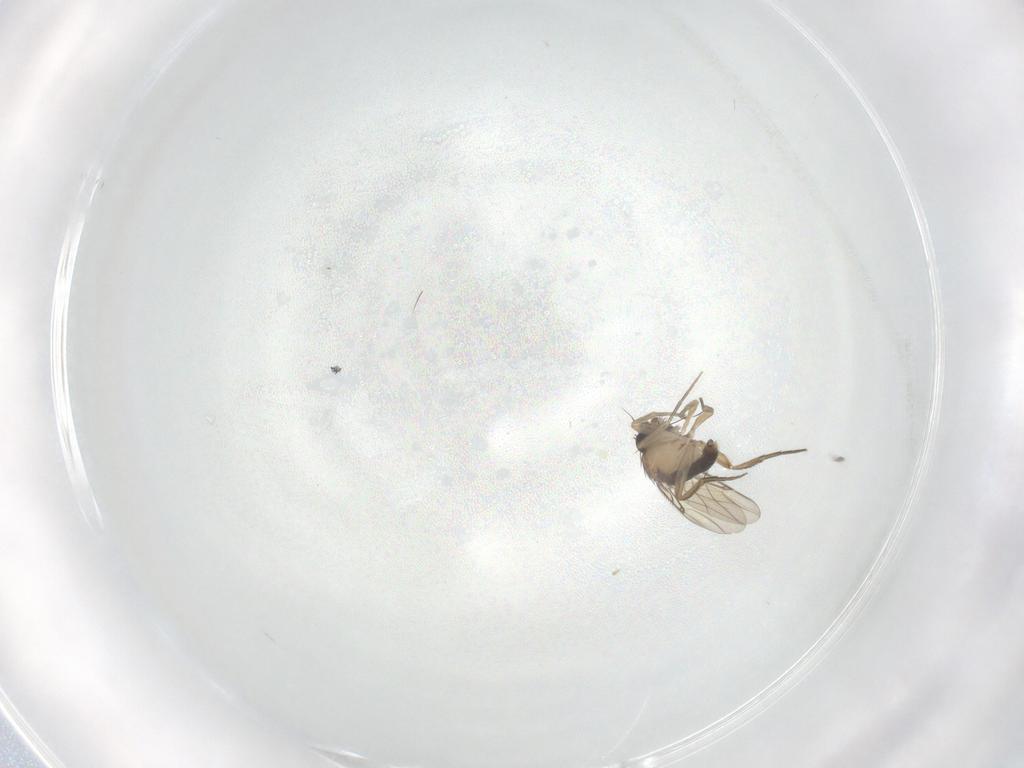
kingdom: Animalia
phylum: Arthropoda
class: Insecta
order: Diptera
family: Phoridae
